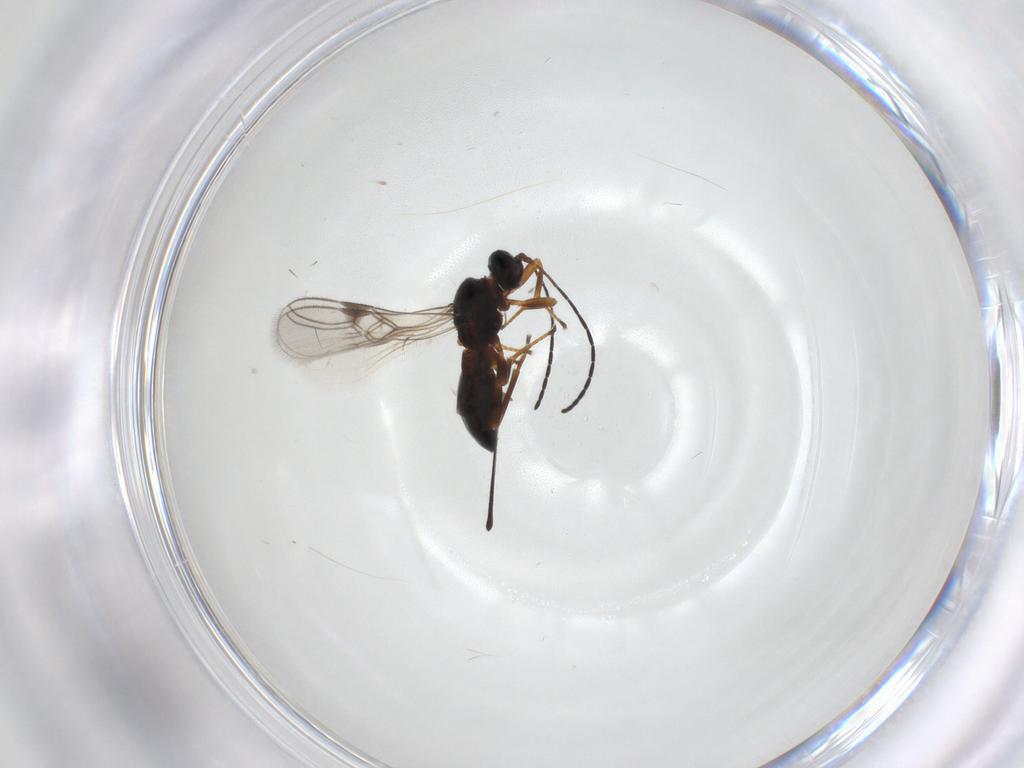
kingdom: Animalia
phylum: Arthropoda
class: Insecta
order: Hymenoptera
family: Braconidae
